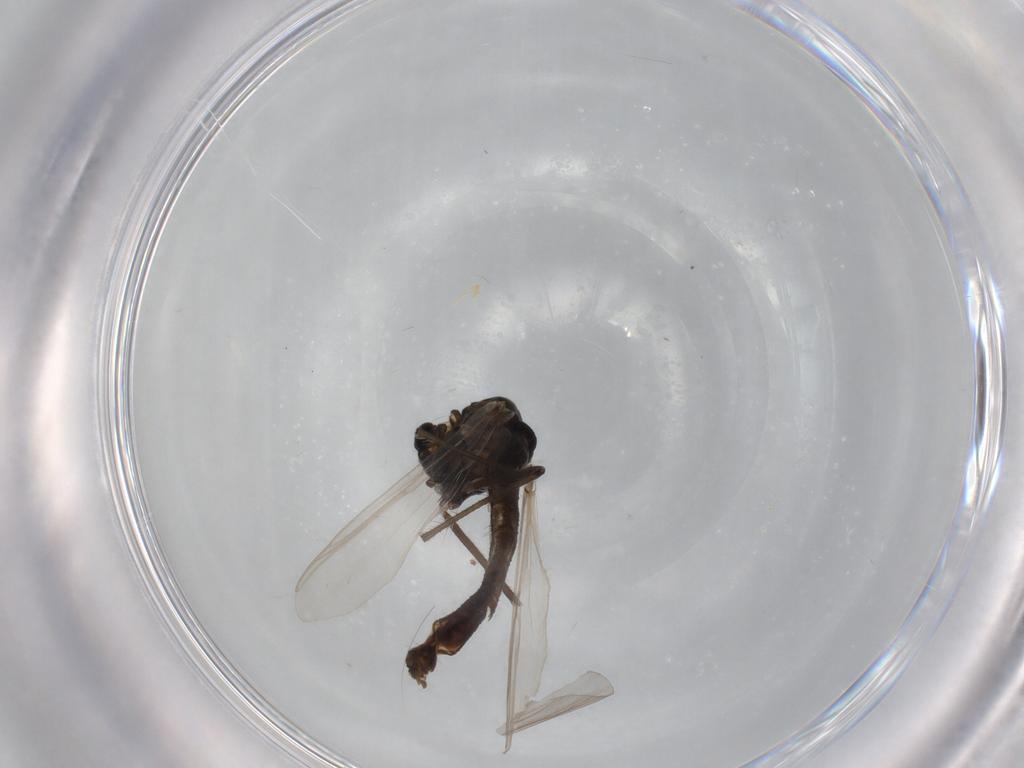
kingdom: Animalia
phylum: Arthropoda
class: Insecta
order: Diptera
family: Chironomidae
